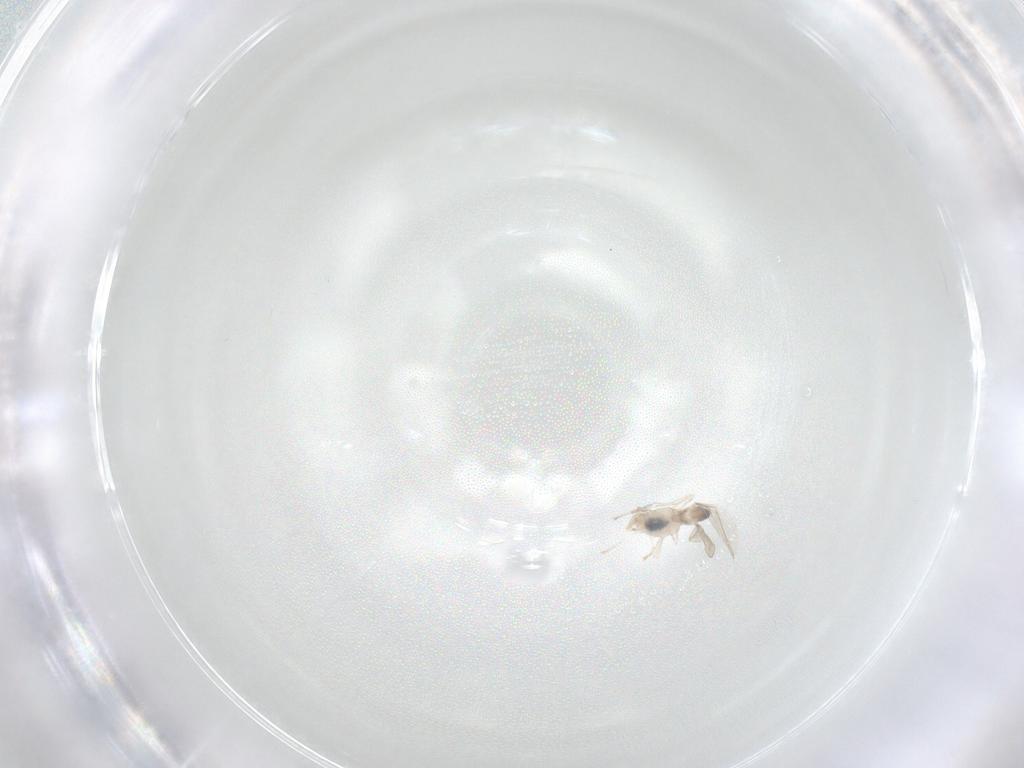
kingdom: Animalia
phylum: Arthropoda
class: Insecta
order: Diptera
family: Cecidomyiidae
